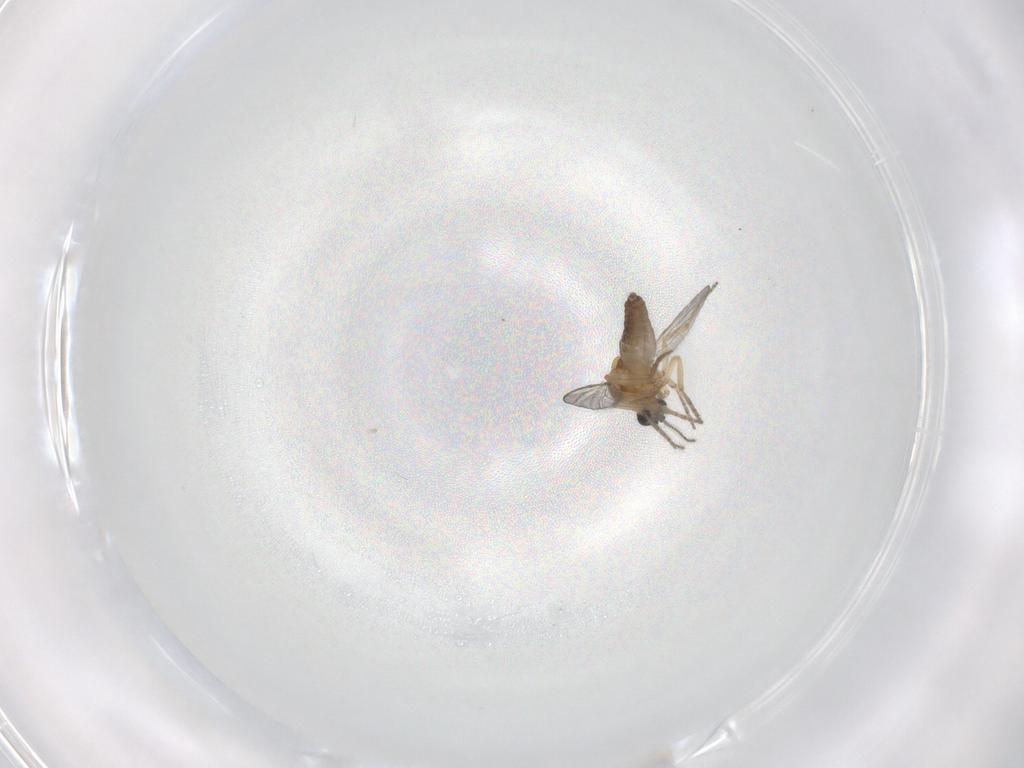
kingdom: Animalia
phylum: Arthropoda
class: Insecta
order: Diptera
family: Ceratopogonidae
